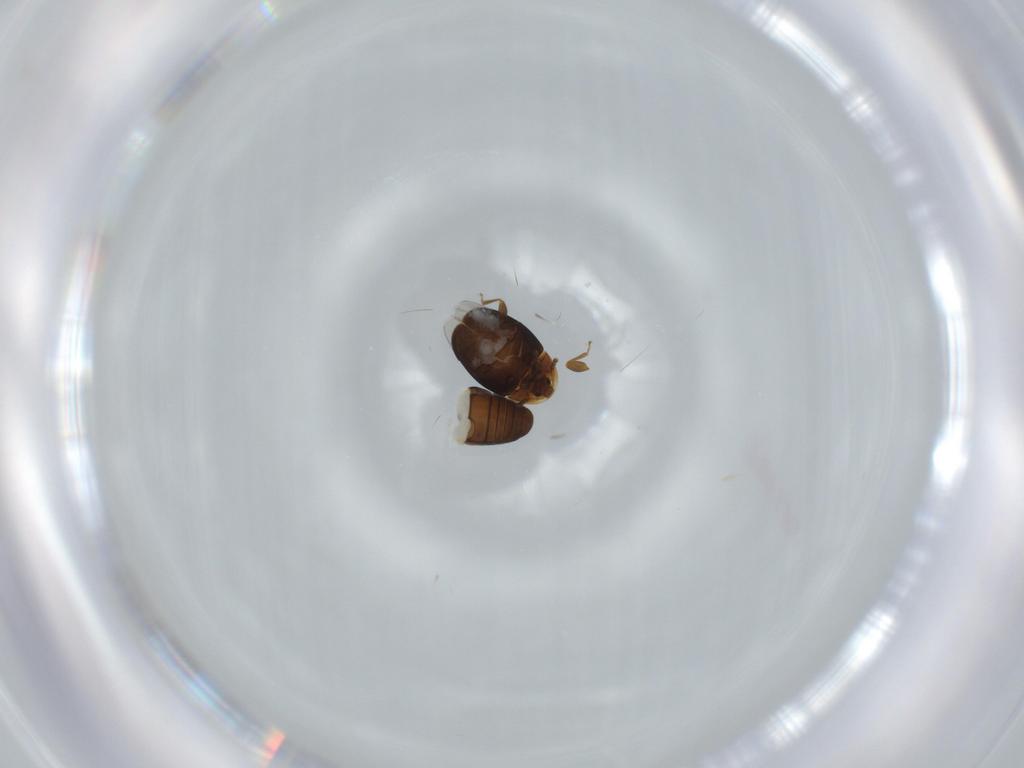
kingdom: Animalia
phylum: Arthropoda
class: Insecta
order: Coleoptera
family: Corylophidae
